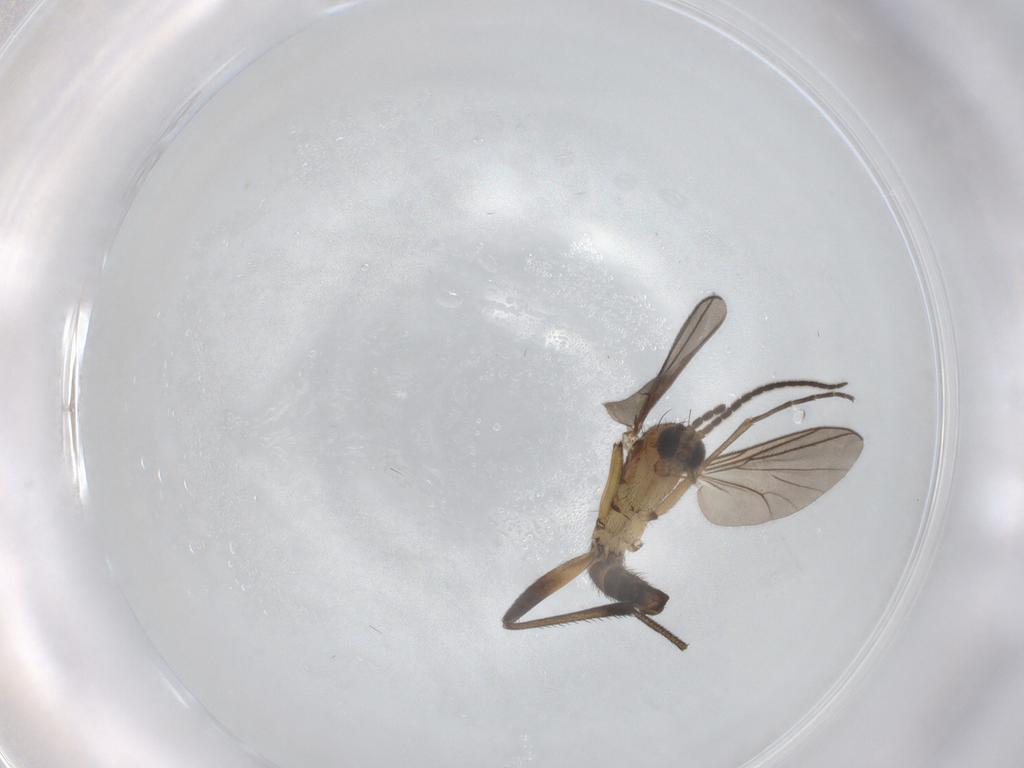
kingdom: Animalia
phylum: Arthropoda
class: Insecta
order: Diptera
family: Mycetophilidae
